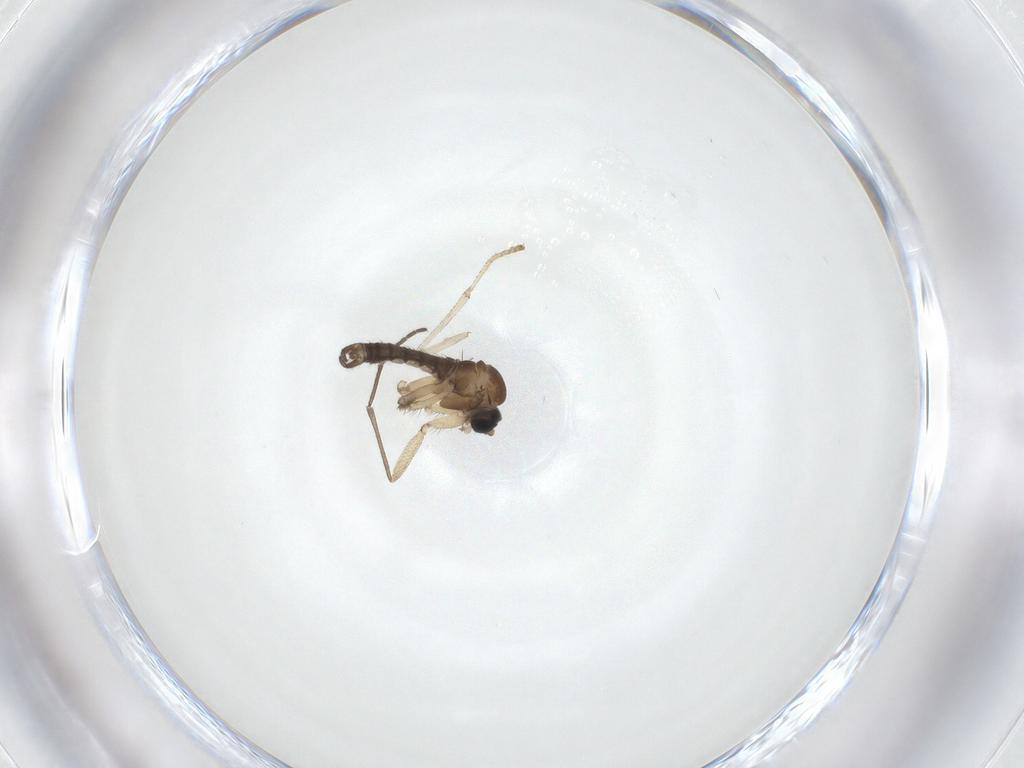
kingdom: Animalia
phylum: Arthropoda
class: Insecta
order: Diptera
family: Sciaridae
